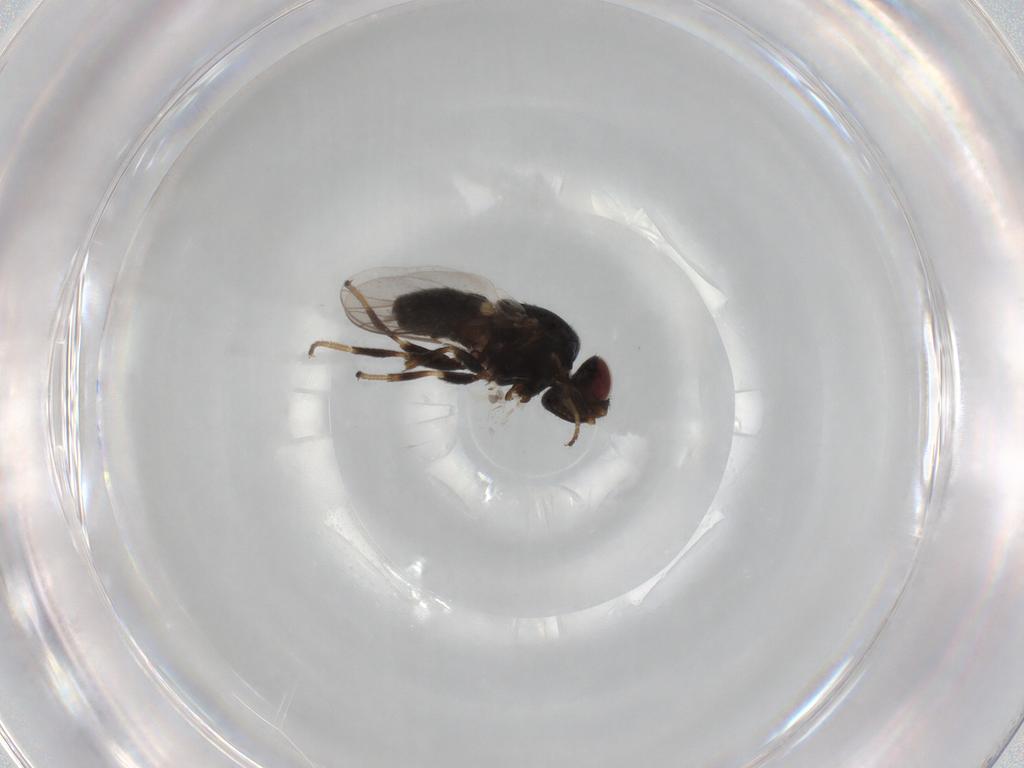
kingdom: Animalia
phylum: Arthropoda
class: Insecta
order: Diptera
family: Chloropidae
